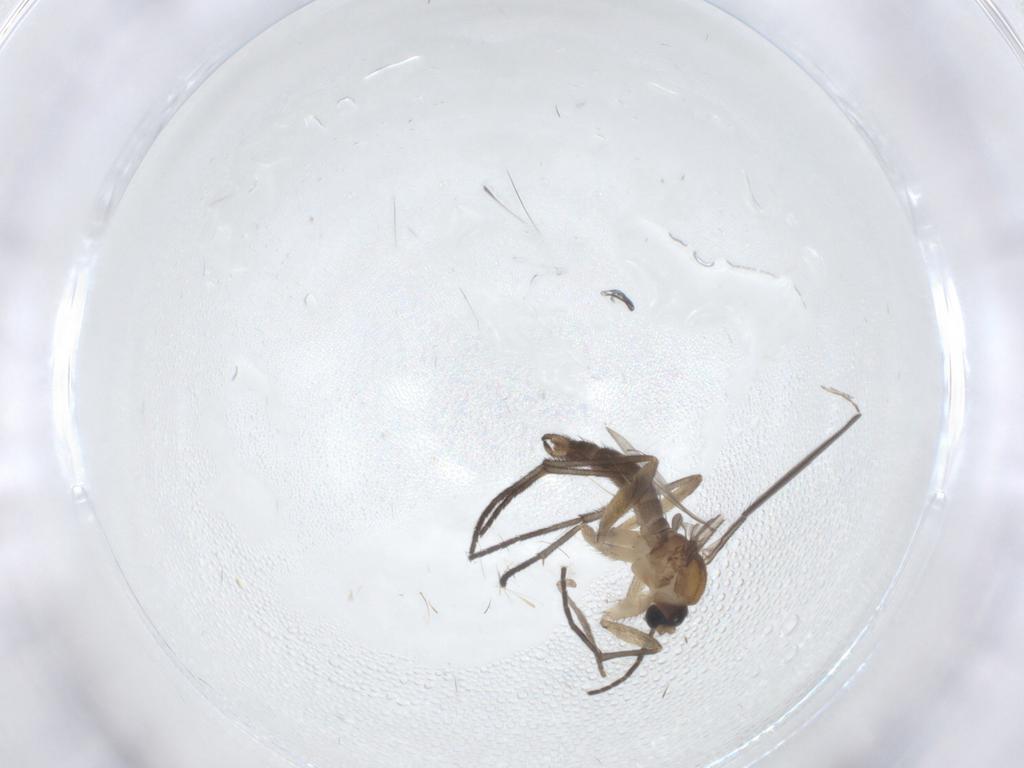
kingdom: Animalia
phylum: Arthropoda
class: Insecta
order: Diptera
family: Sciaridae
